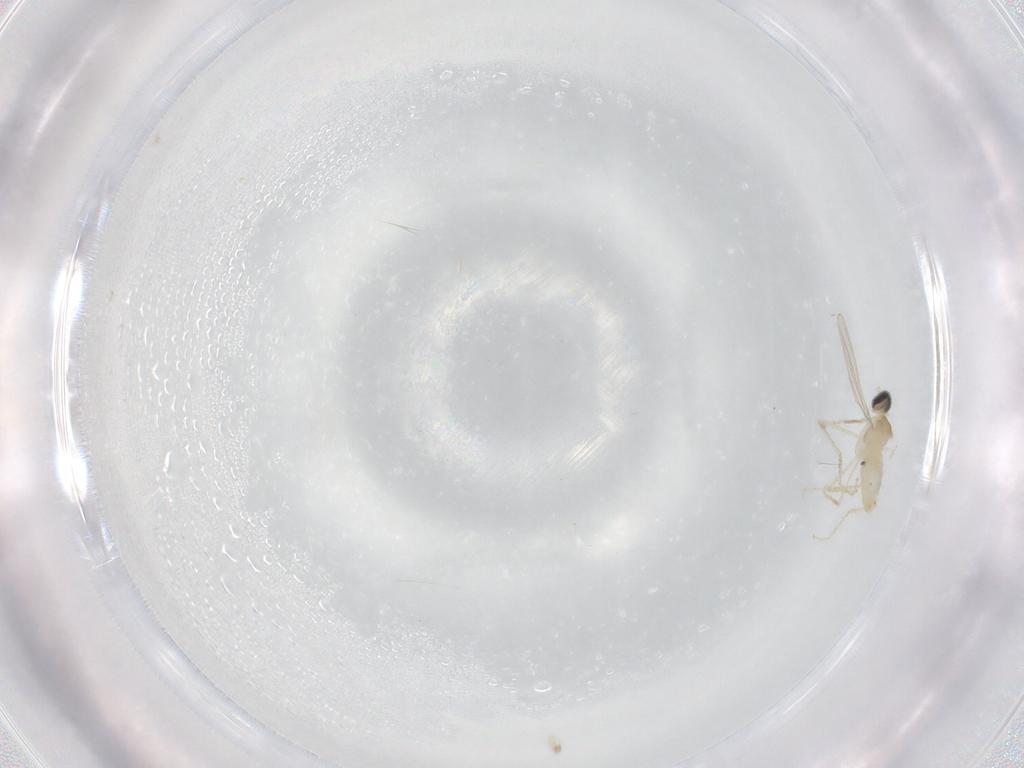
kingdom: Animalia
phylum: Arthropoda
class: Insecta
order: Diptera
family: Cecidomyiidae
